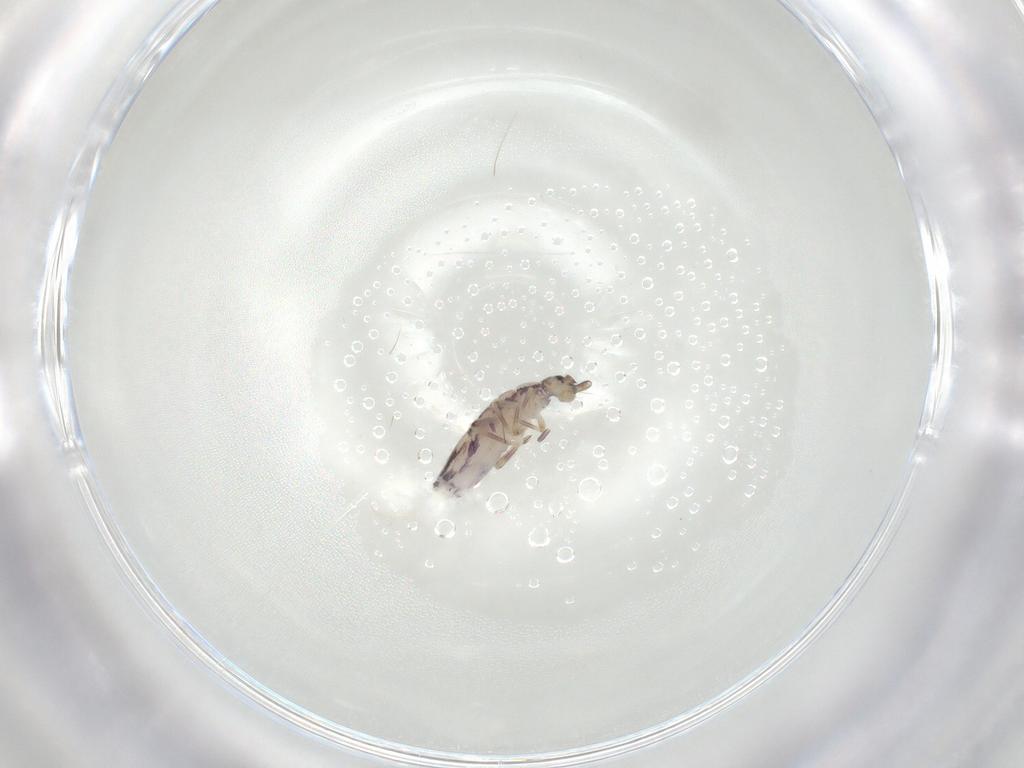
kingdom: Animalia
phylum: Arthropoda
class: Collembola
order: Entomobryomorpha
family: Entomobryidae
